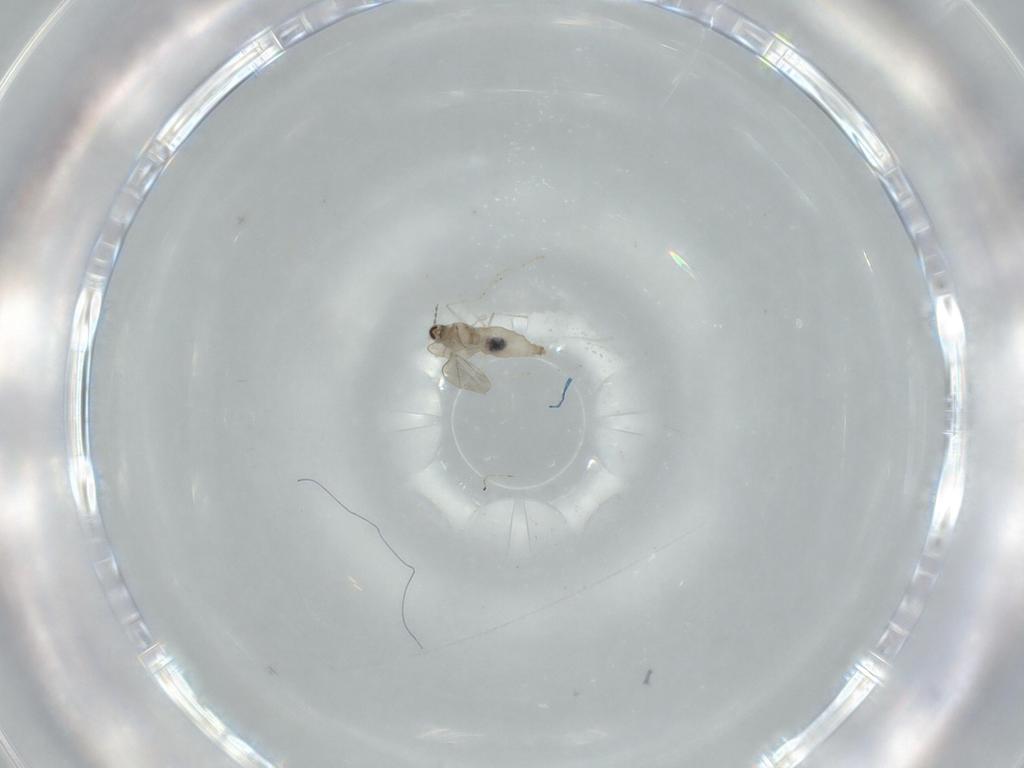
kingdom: Animalia
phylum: Arthropoda
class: Insecta
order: Diptera
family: Cecidomyiidae
